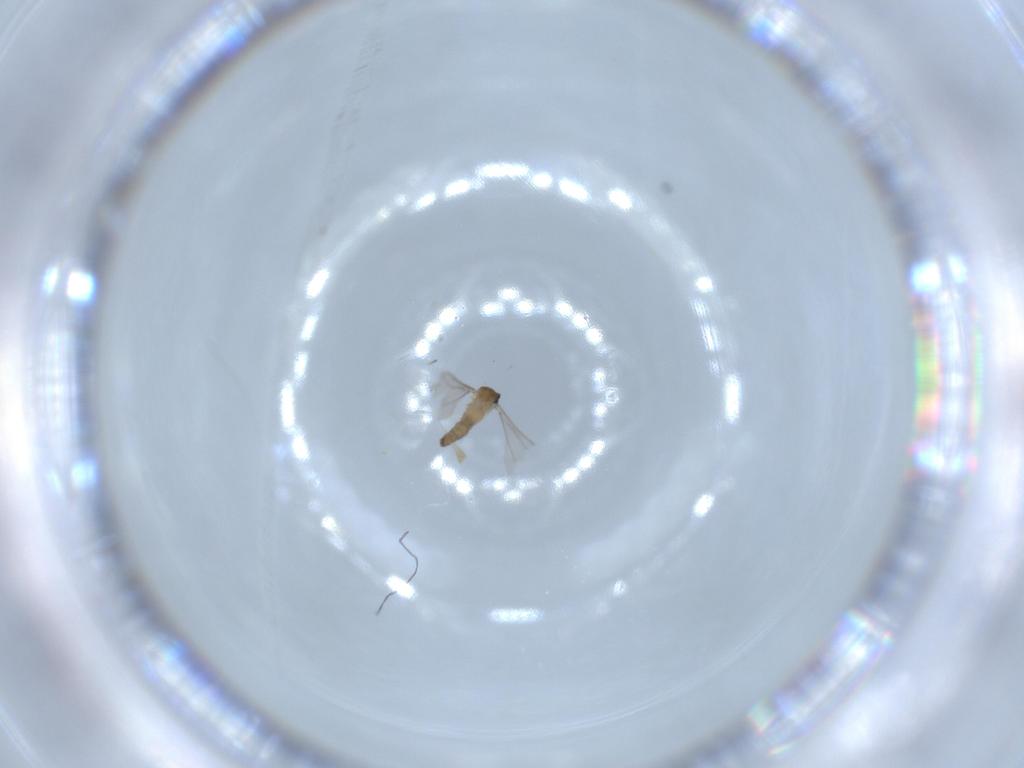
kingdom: Animalia
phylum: Arthropoda
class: Insecta
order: Diptera
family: Cecidomyiidae
